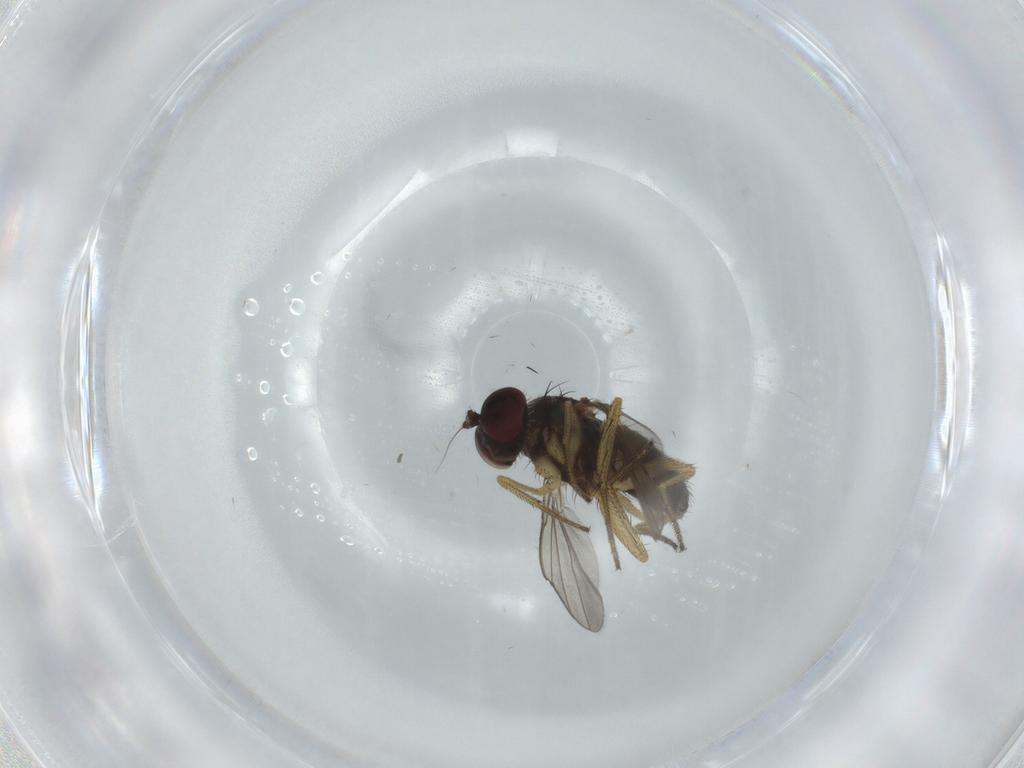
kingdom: Animalia
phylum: Arthropoda
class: Insecta
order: Diptera
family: Dolichopodidae
